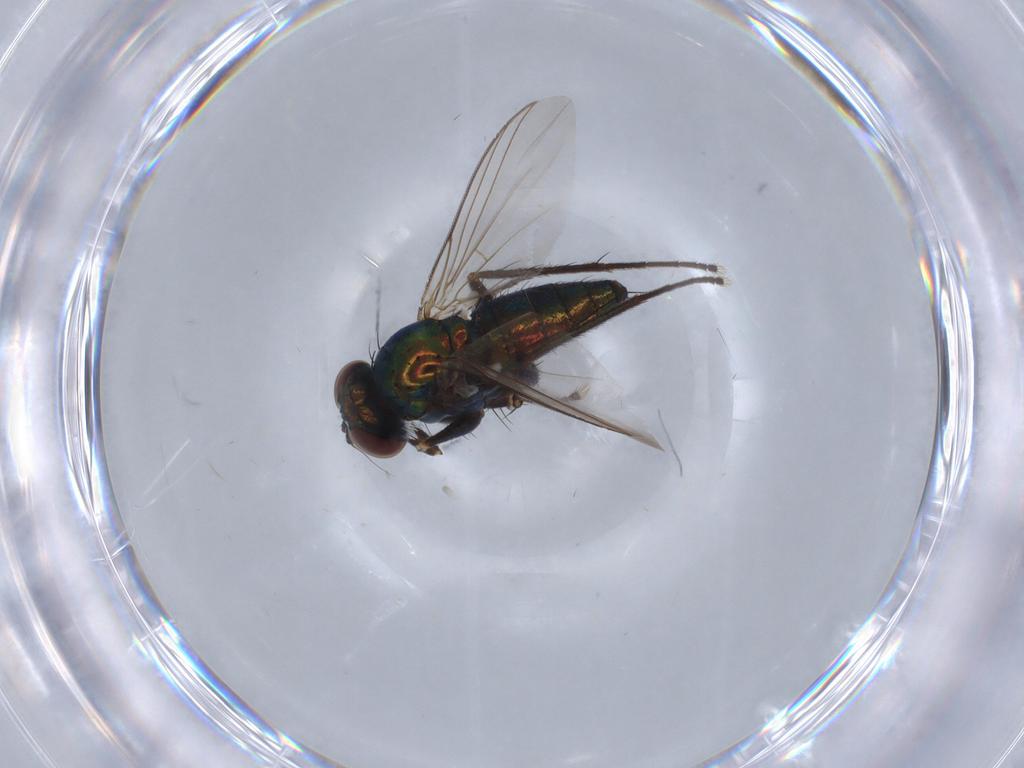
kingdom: Animalia
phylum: Arthropoda
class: Insecta
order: Diptera
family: Dolichopodidae
